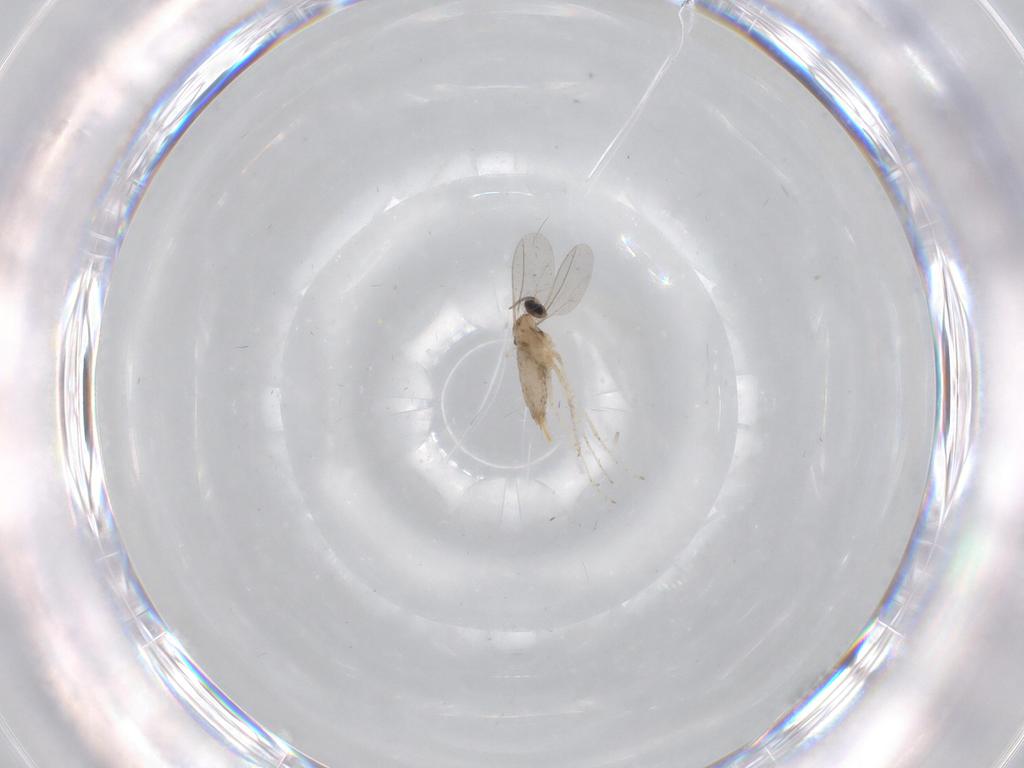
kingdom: Animalia
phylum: Arthropoda
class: Insecta
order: Diptera
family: Cecidomyiidae
